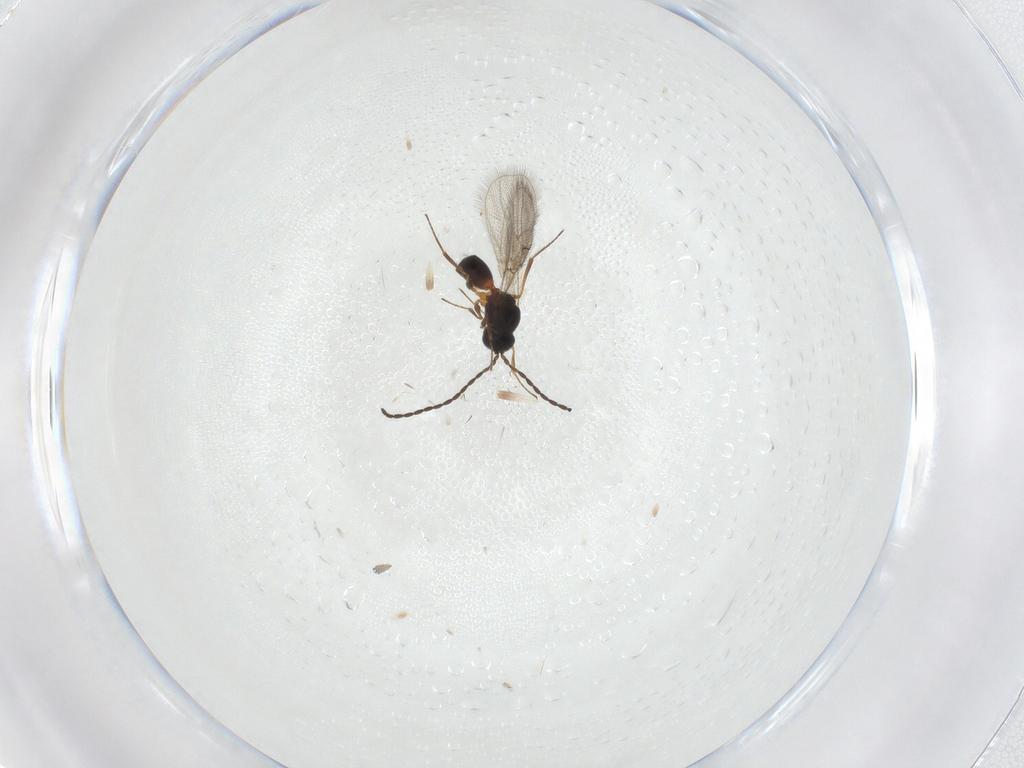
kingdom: Animalia
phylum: Arthropoda
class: Insecta
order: Hymenoptera
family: Figitidae
